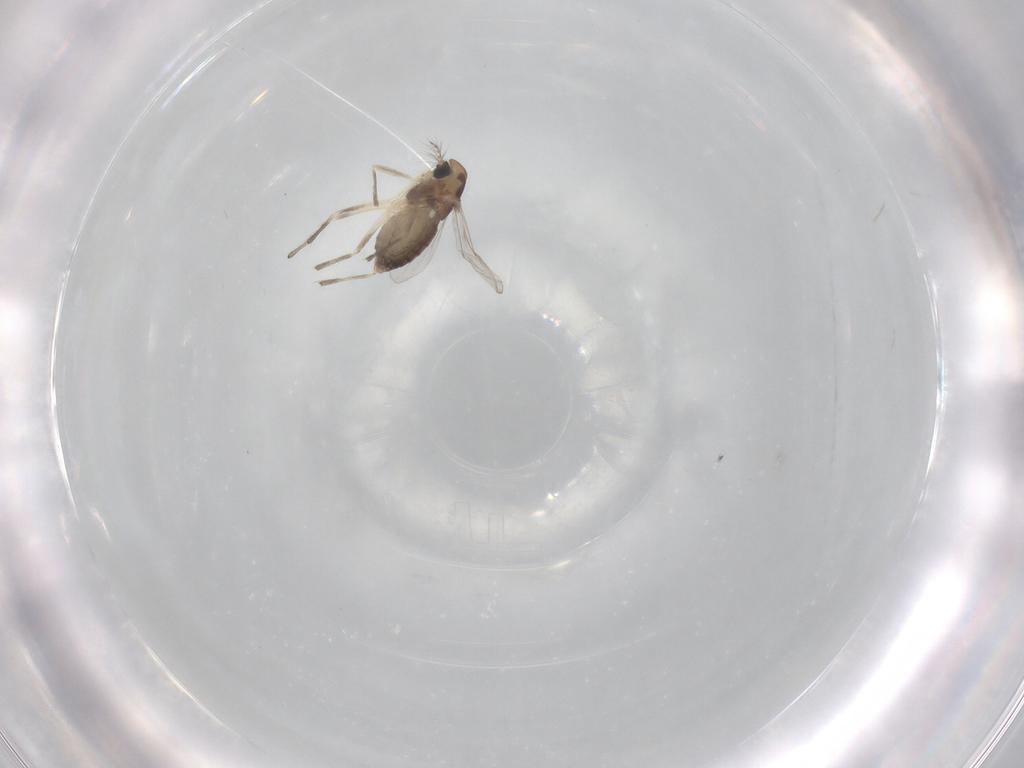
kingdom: Animalia
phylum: Arthropoda
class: Insecta
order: Diptera
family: Chironomidae
